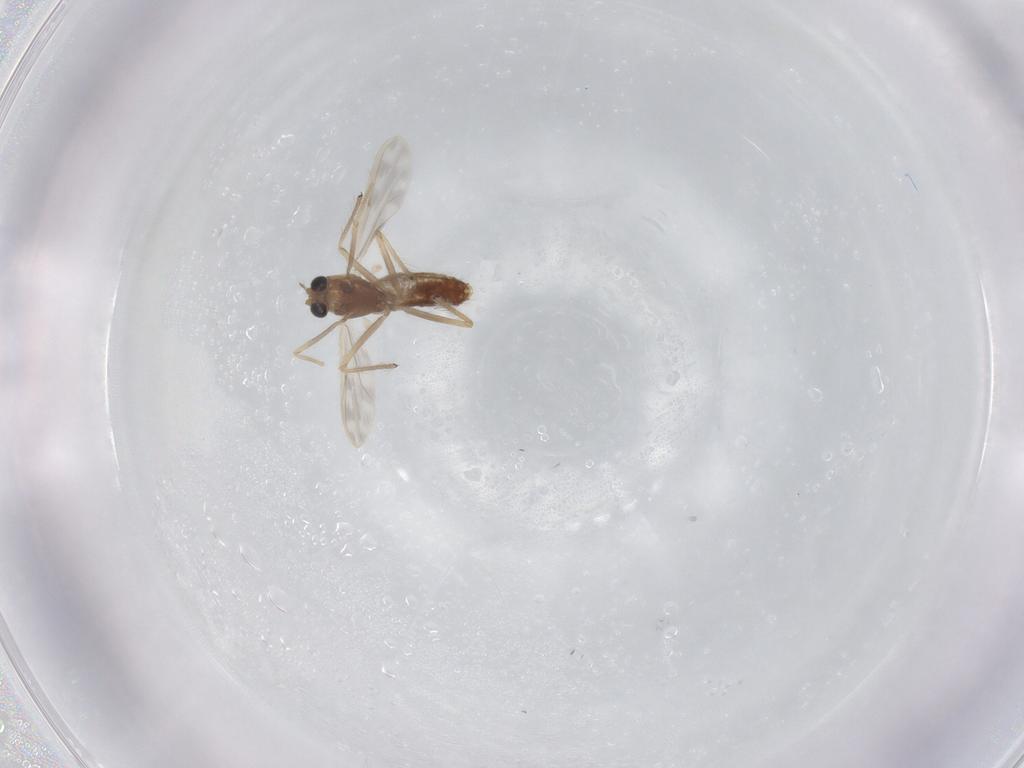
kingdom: Animalia
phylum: Arthropoda
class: Insecta
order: Diptera
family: Chironomidae
